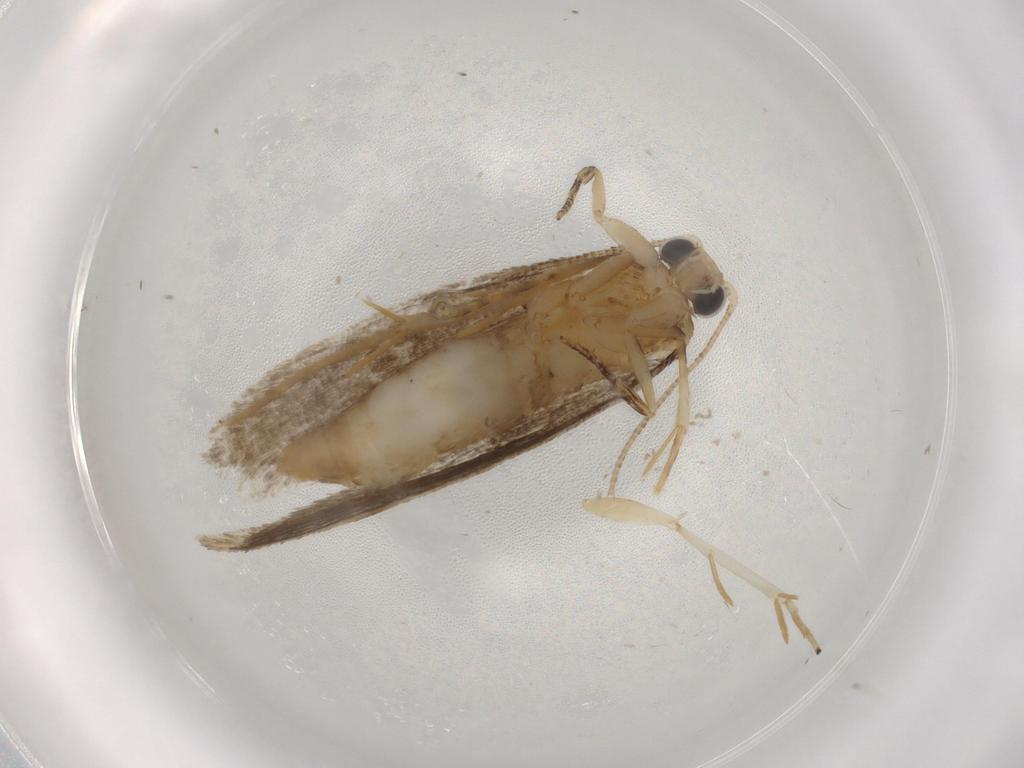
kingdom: Animalia
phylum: Arthropoda
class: Insecta
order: Lepidoptera
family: Tineidae
